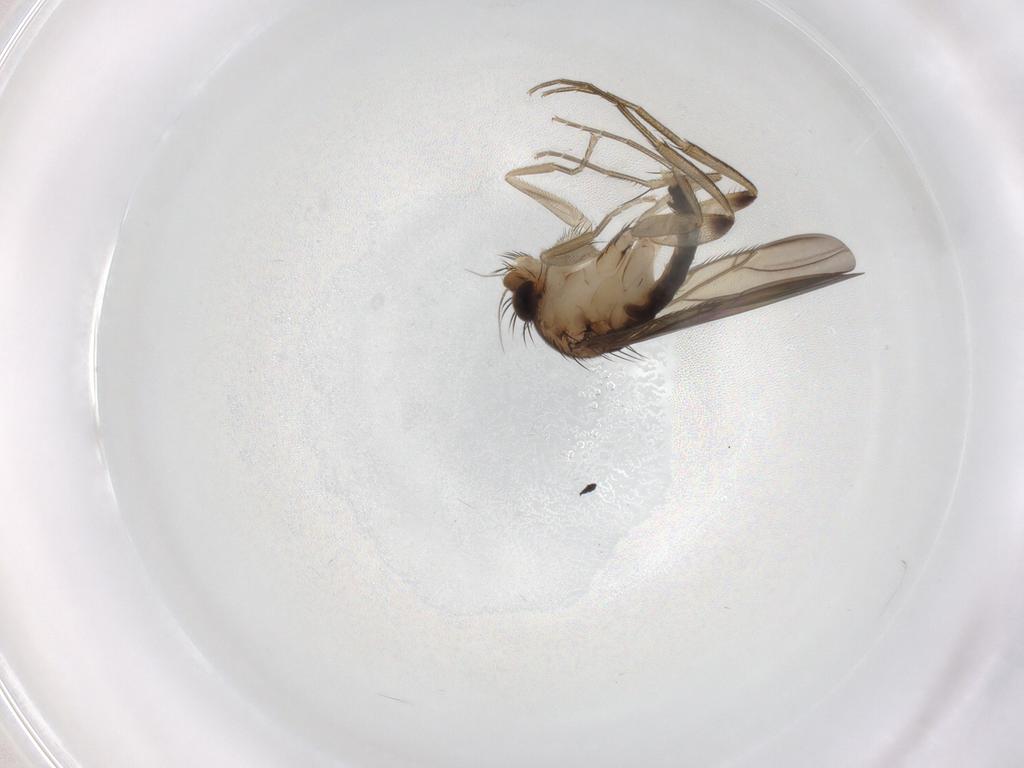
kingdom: Animalia
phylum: Arthropoda
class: Insecta
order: Diptera
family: Phoridae
